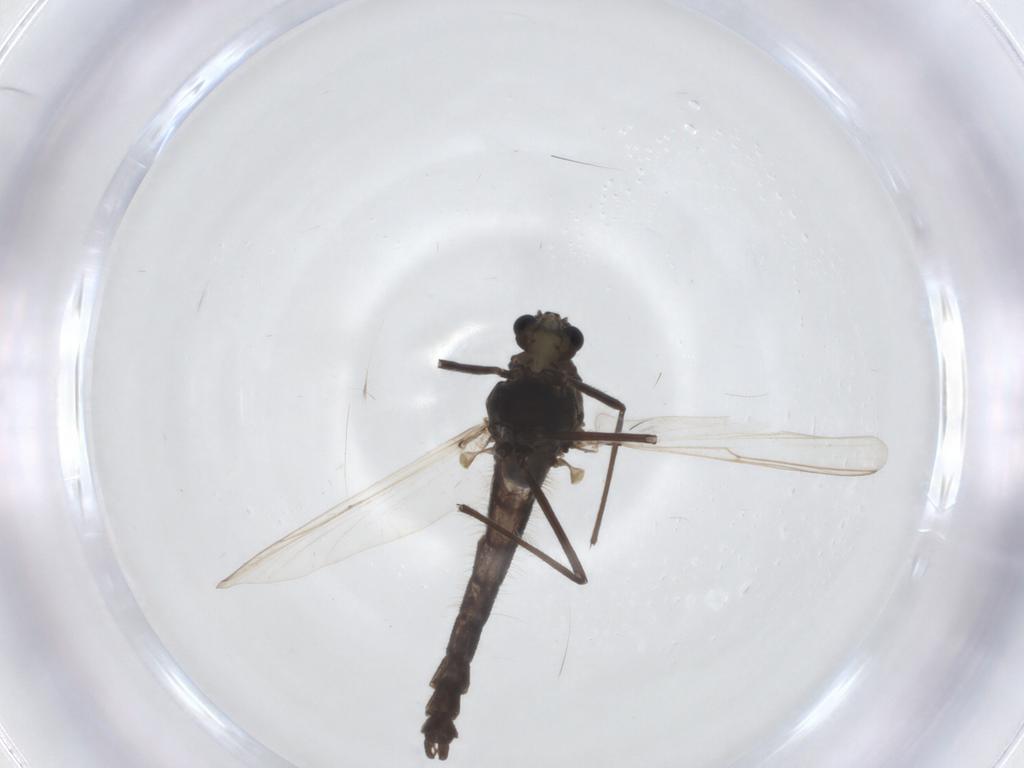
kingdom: Animalia
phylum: Arthropoda
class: Insecta
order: Diptera
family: Chironomidae
